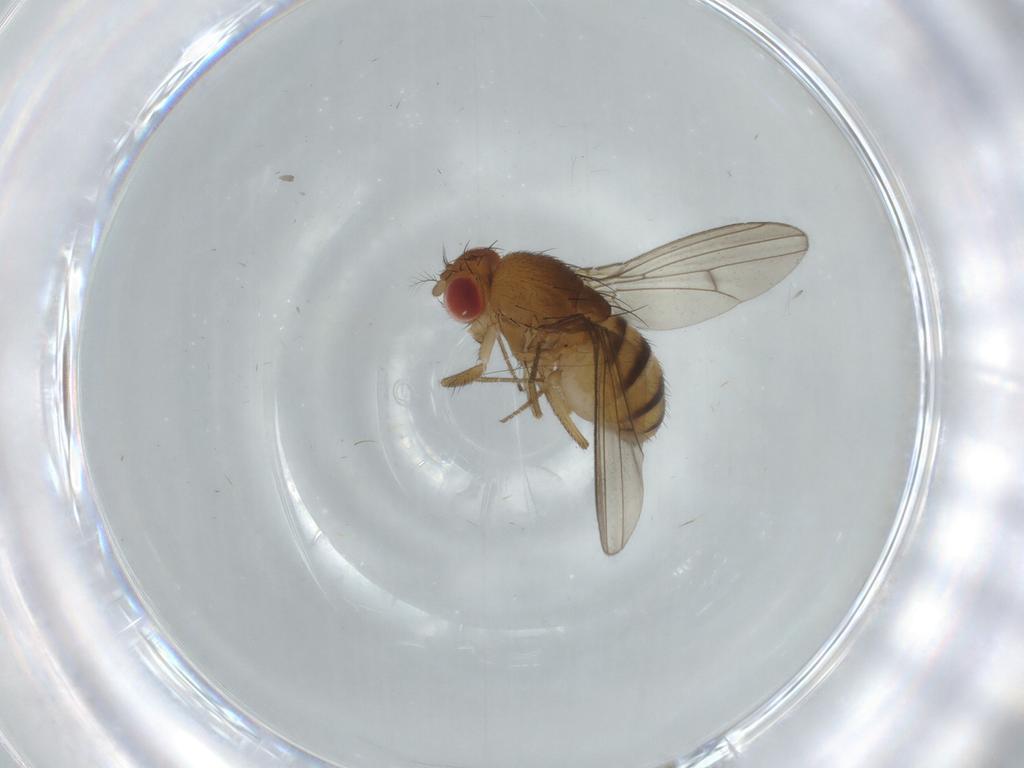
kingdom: Animalia
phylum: Arthropoda
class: Insecta
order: Diptera
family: Drosophilidae
